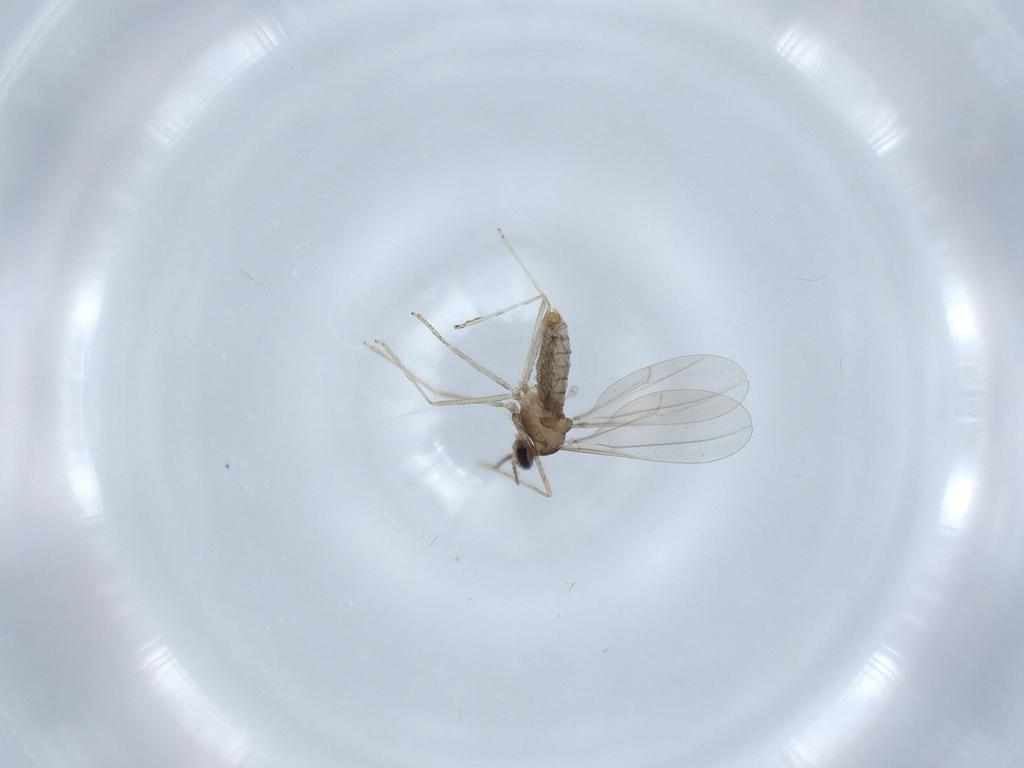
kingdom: Animalia
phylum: Arthropoda
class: Insecta
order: Diptera
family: Cecidomyiidae
